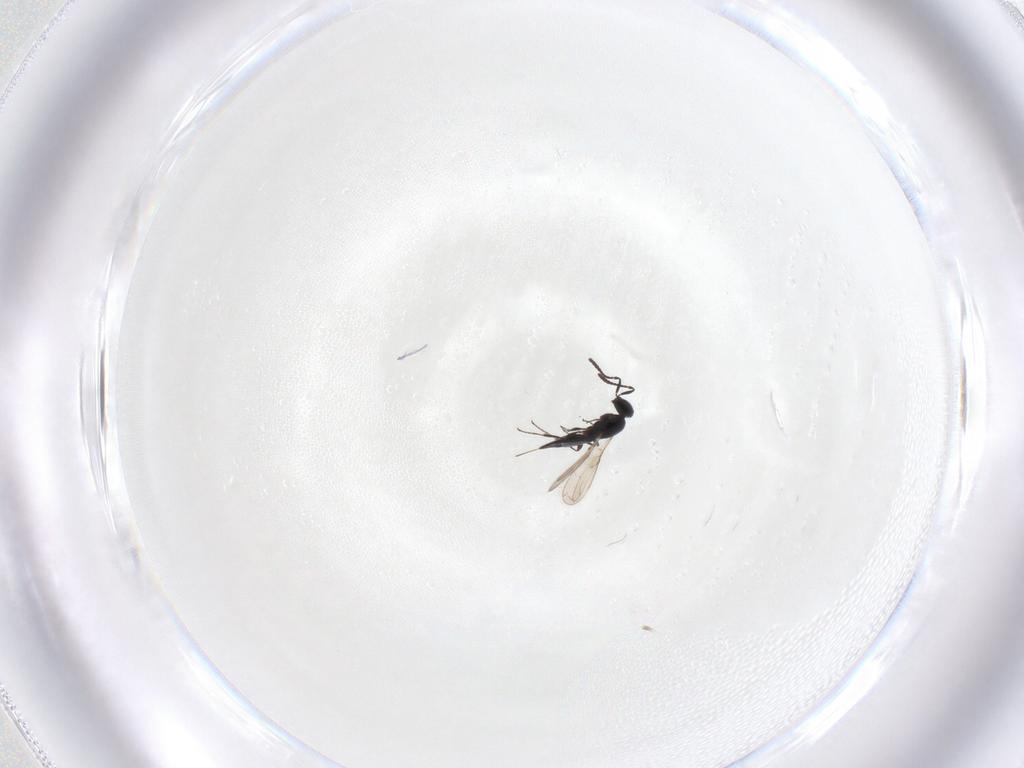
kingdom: Animalia
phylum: Arthropoda
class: Insecta
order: Hymenoptera
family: Scelionidae
